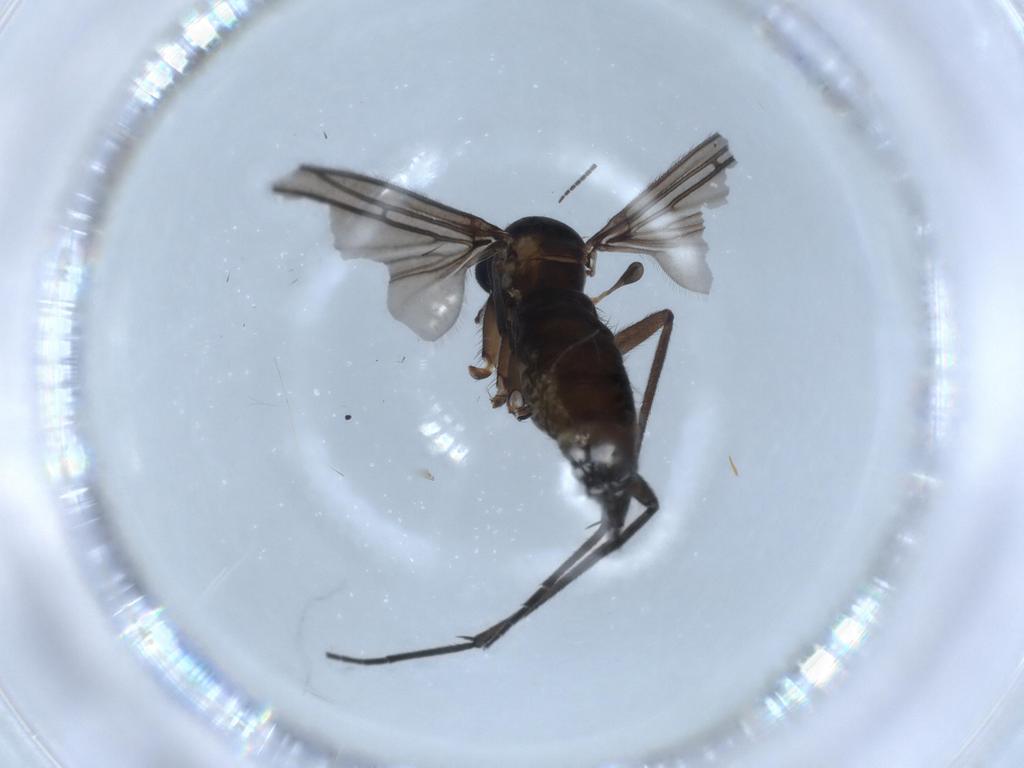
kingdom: Animalia
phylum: Arthropoda
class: Insecta
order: Diptera
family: Sciaridae
